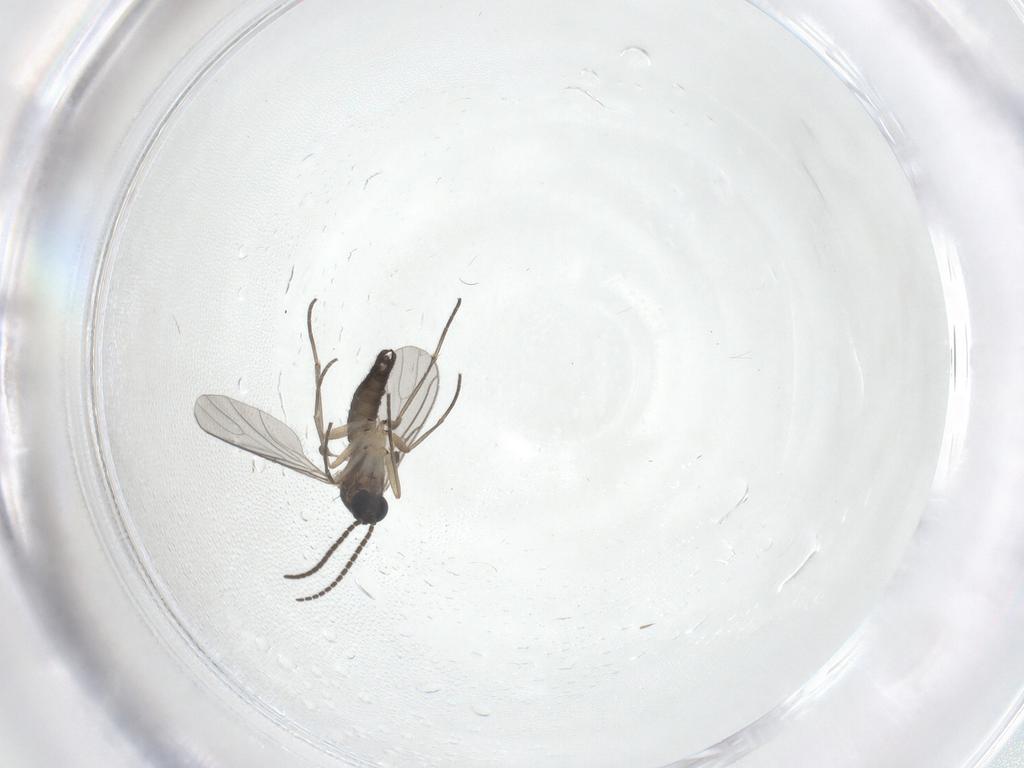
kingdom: Animalia
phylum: Arthropoda
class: Insecta
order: Diptera
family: Sciaridae
